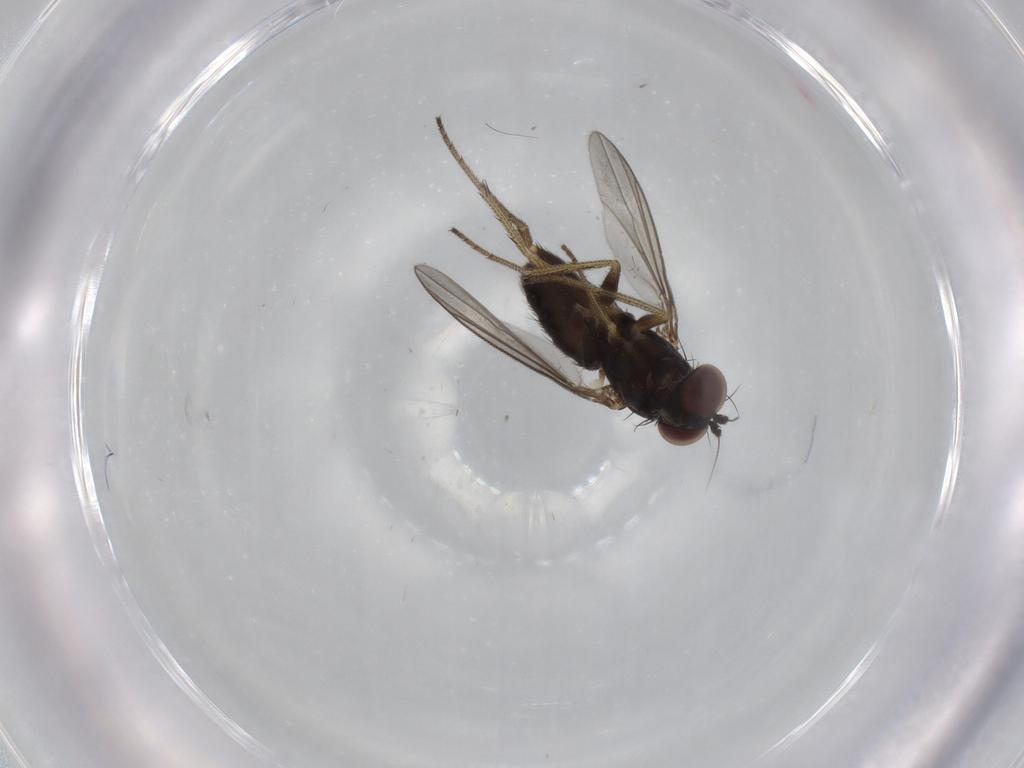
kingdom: Animalia
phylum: Arthropoda
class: Insecta
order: Diptera
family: Dolichopodidae
